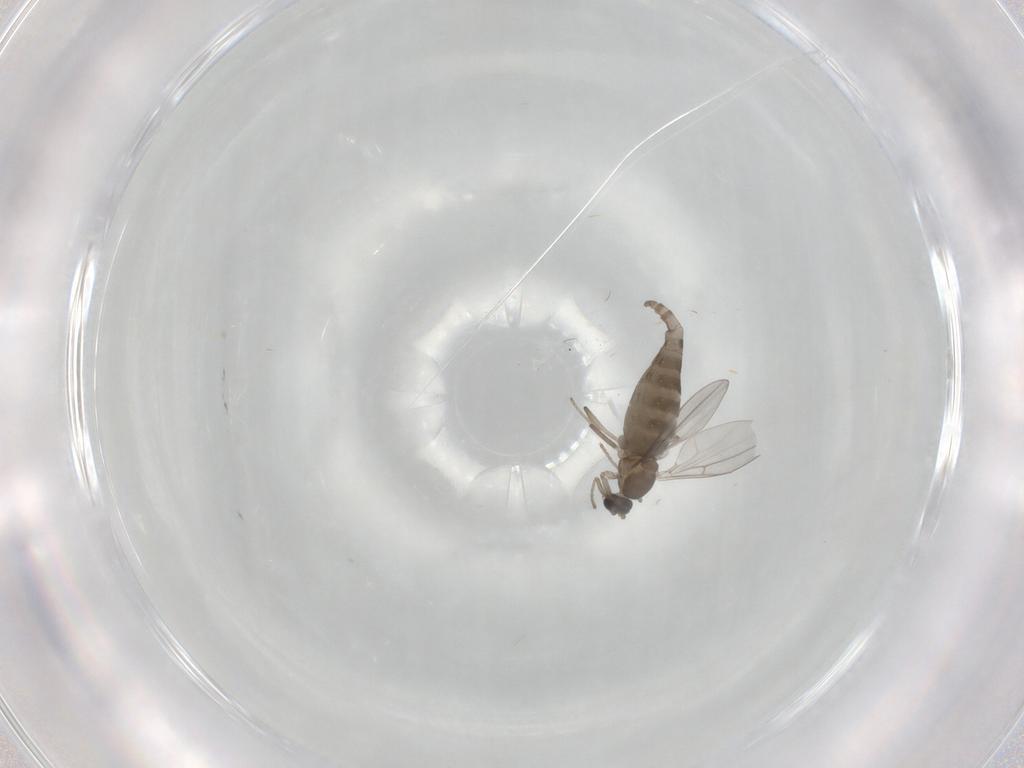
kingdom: Animalia
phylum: Arthropoda
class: Insecta
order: Diptera
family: Cecidomyiidae
